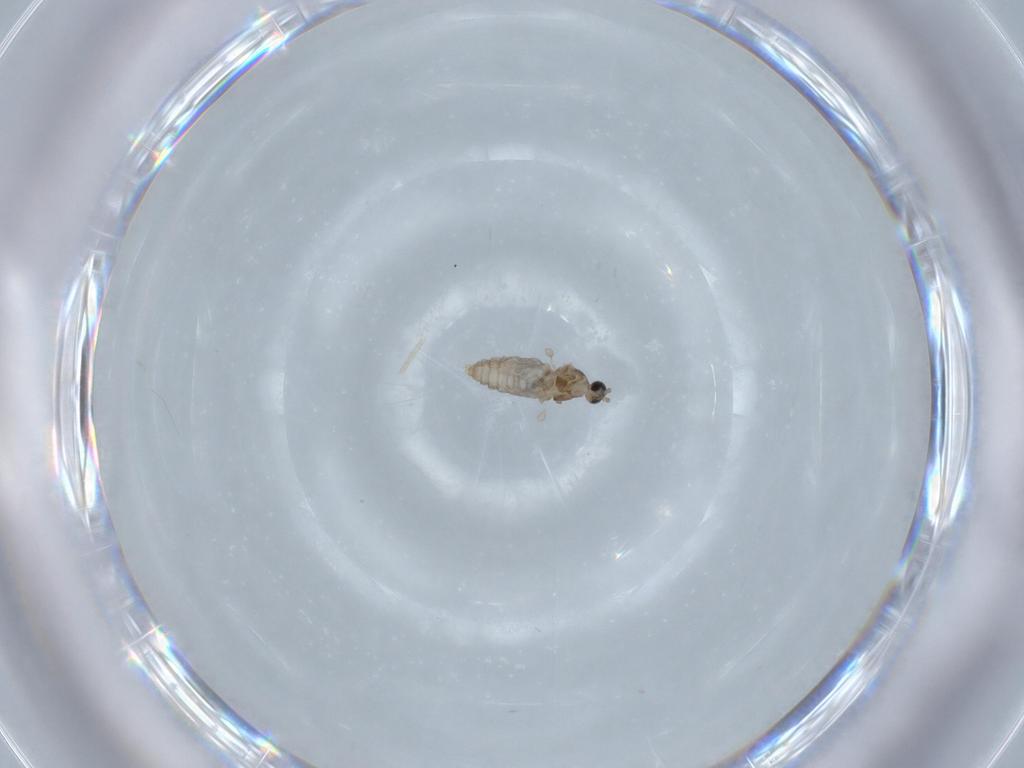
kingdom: Animalia
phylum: Arthropoda
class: Insecta
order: Diptera
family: Cecidomyiidae
